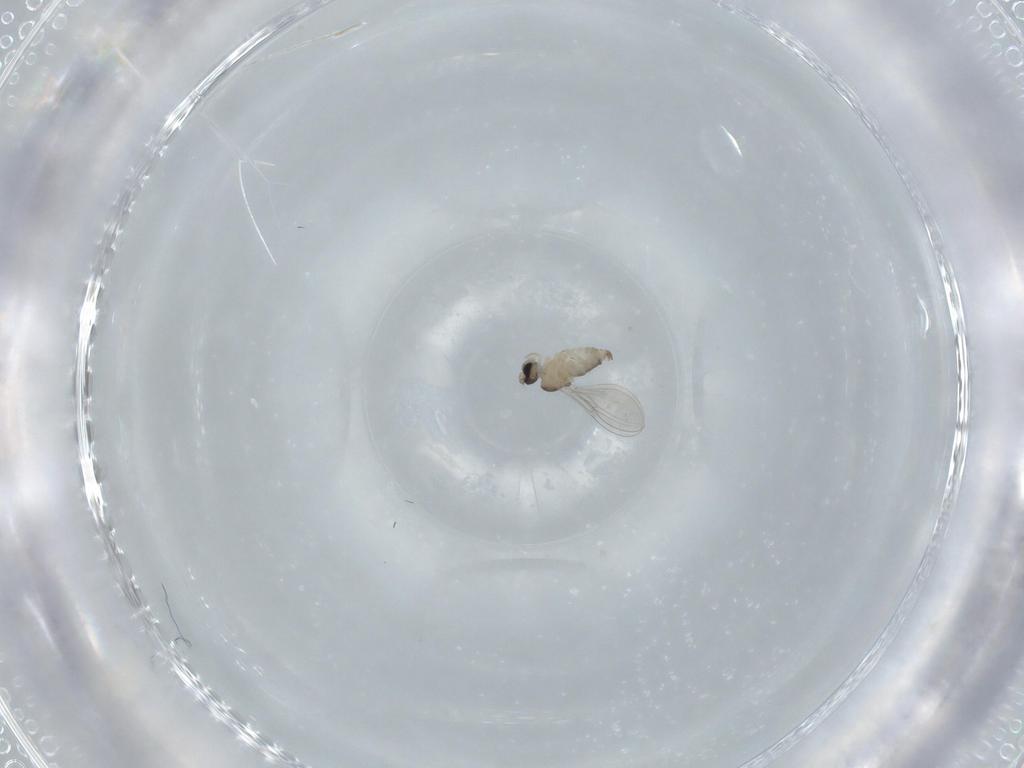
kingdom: Animalia
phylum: Arthropoda
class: Insecta
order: Diptera
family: Cecidomyiidae
